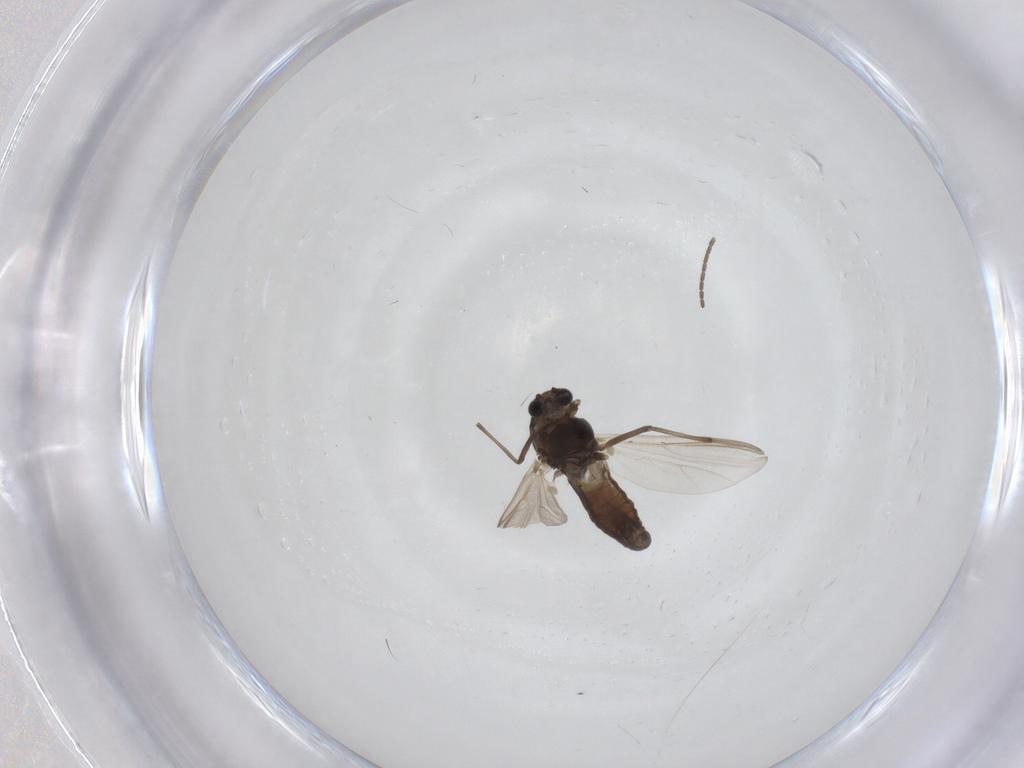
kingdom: Animalia
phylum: Arthropoda
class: Insecta
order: Diptera
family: Chironomidae
